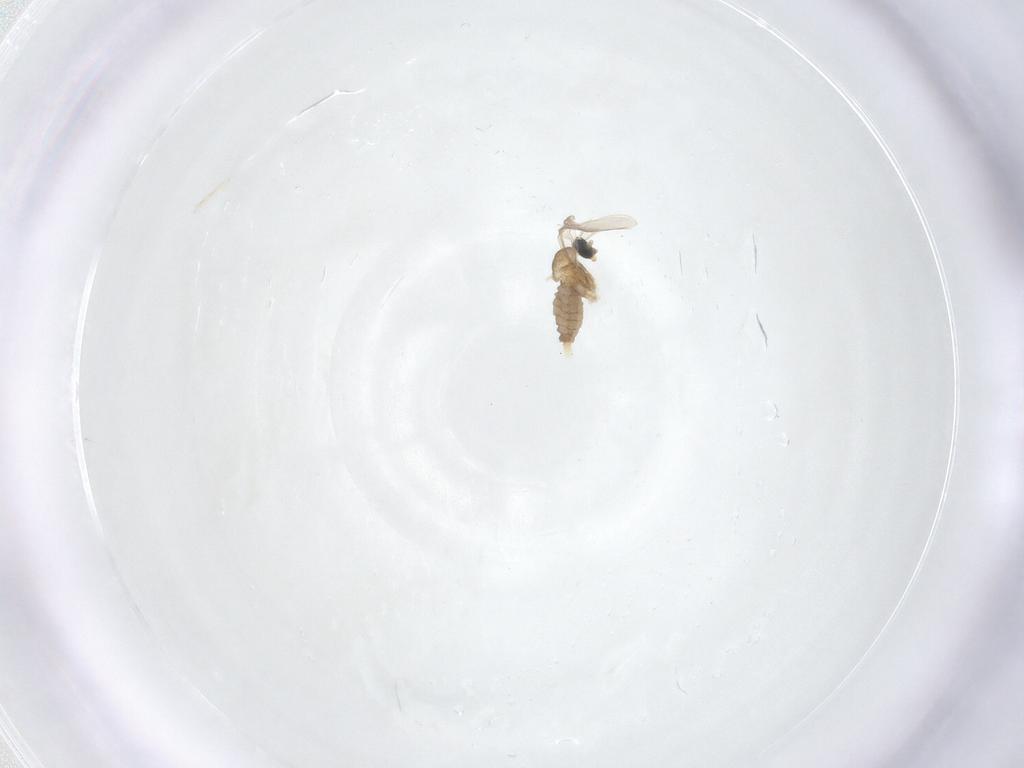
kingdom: Animalia
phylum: Arthropoda
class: Insecta
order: Diptera
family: Cecidomyiidae
